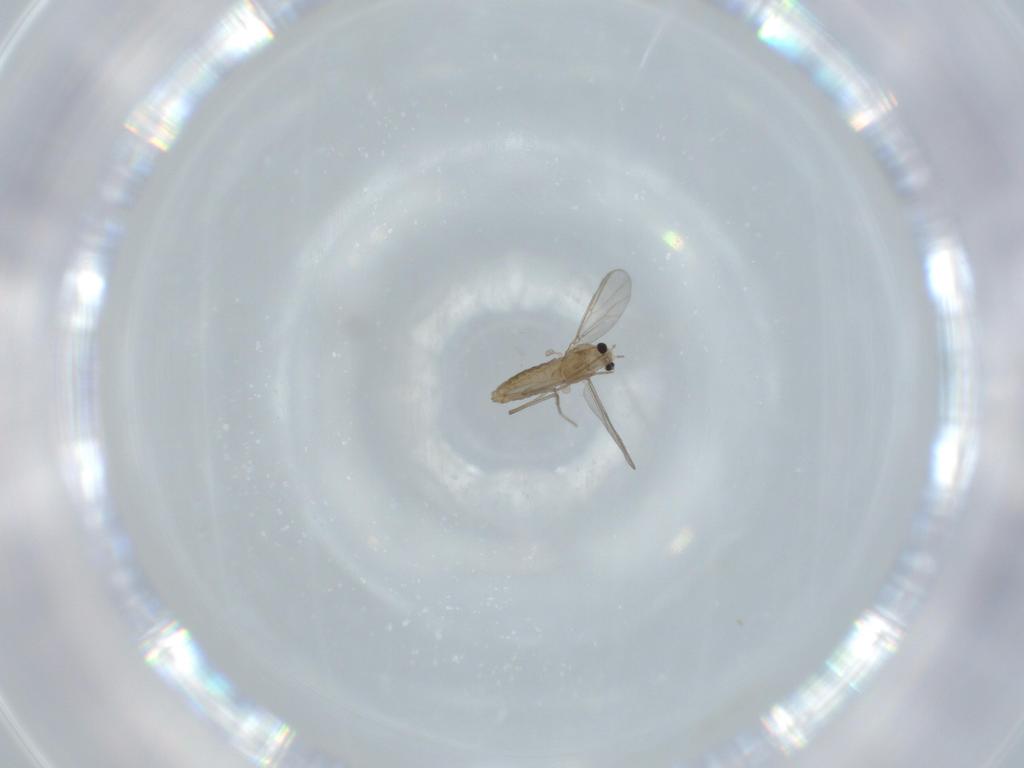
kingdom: Animalia
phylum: Arthropoda
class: Insecta
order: Diptera
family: Chironomidae
